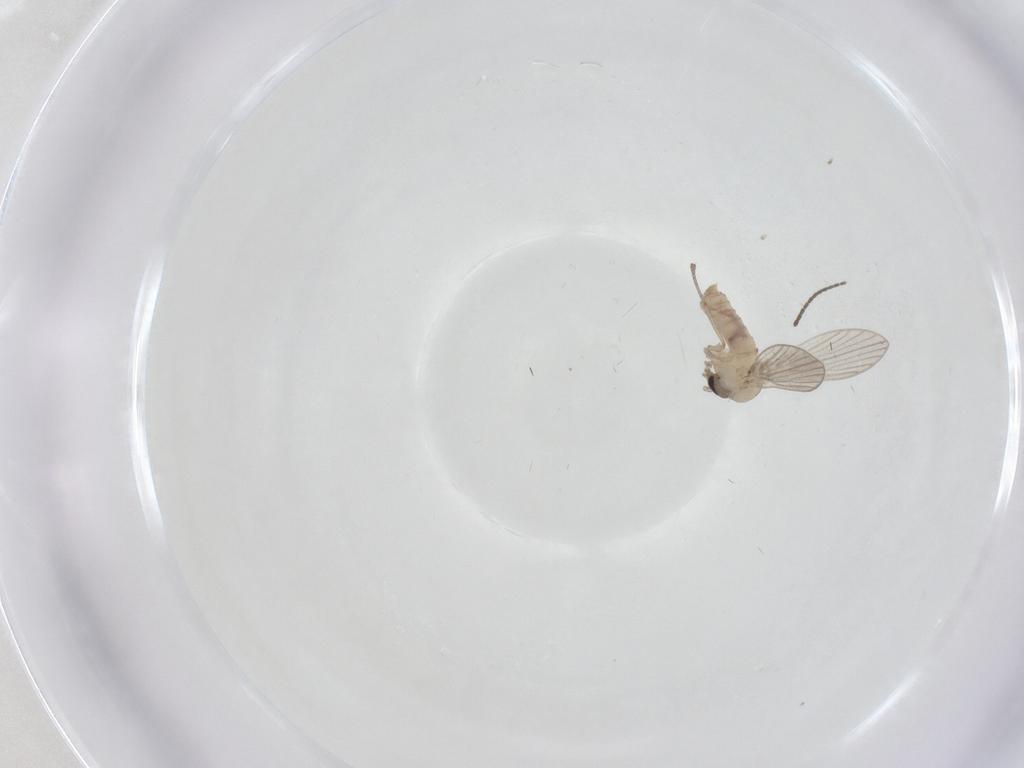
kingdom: Animalia
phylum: Arthropoda
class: Insecta
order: Diptera
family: Psychodidae
